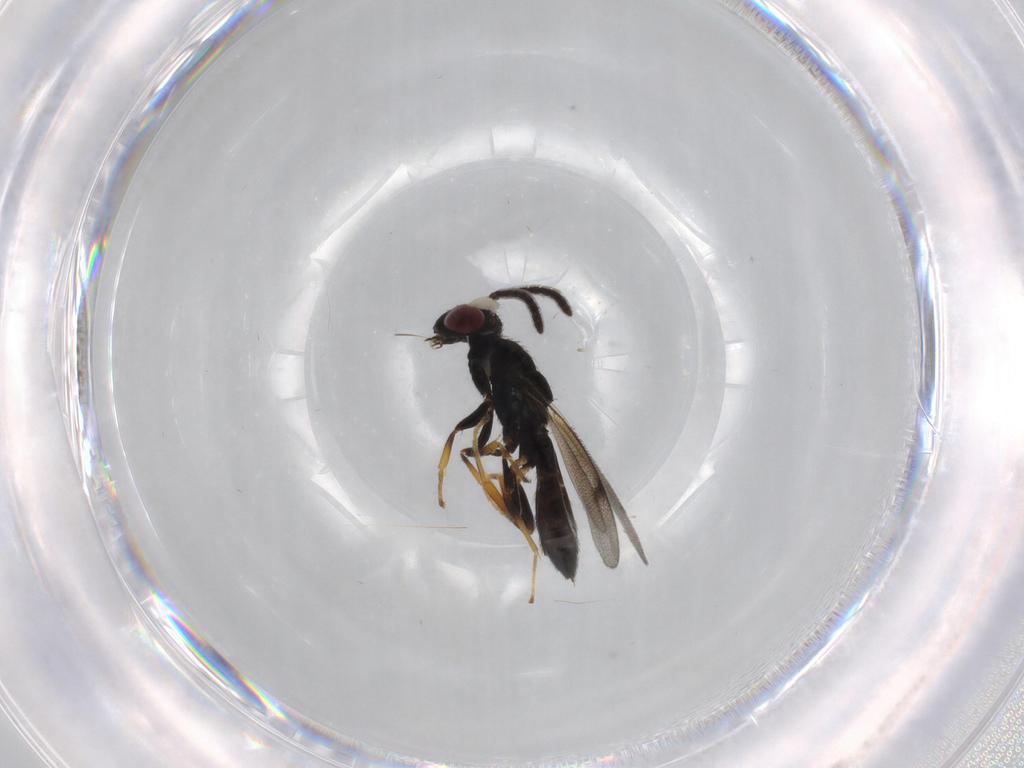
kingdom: Animalia
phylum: Arthropoda
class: Insecta
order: Hymenoptera
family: Pteromalidae
